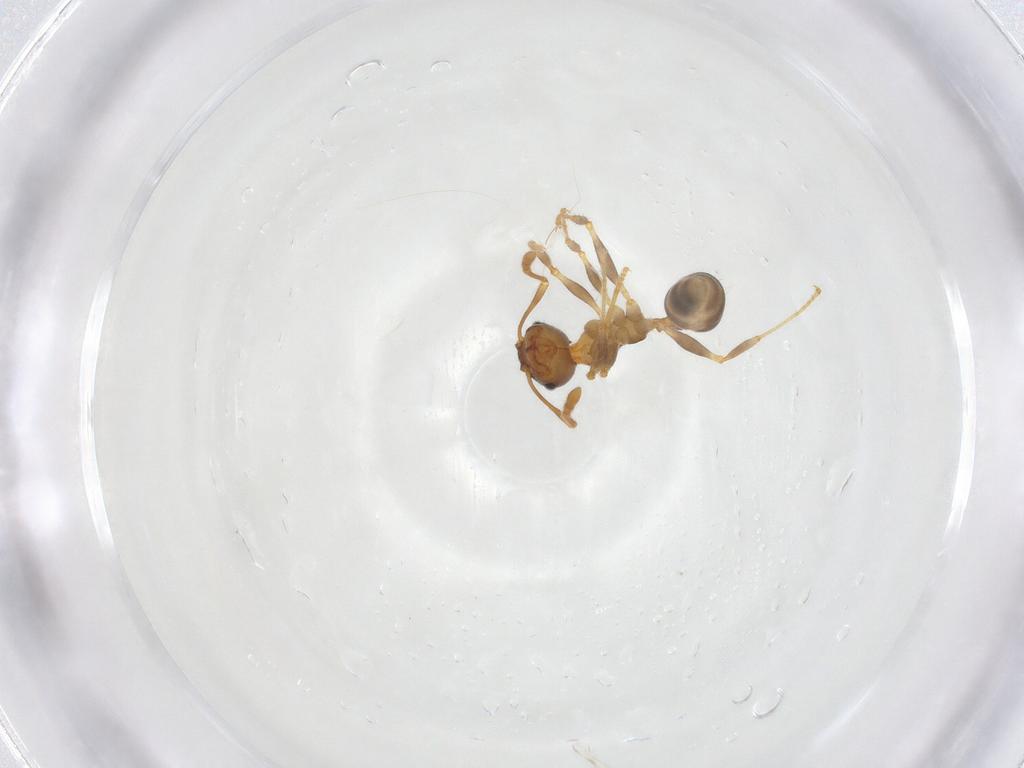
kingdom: Animalia
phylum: Arthropoda
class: Insecta
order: Hymenoptera
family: Formicidae
